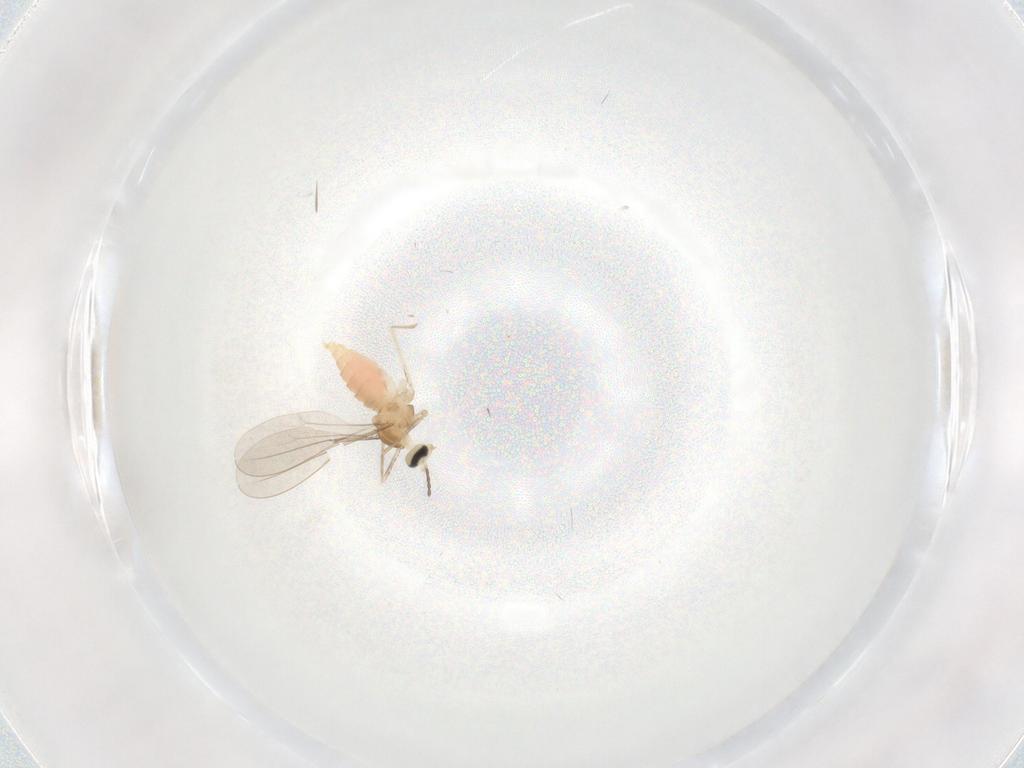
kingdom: Animalia
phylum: Arthropoda
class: Insecta
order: Diptera
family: Cecidomyiidae
